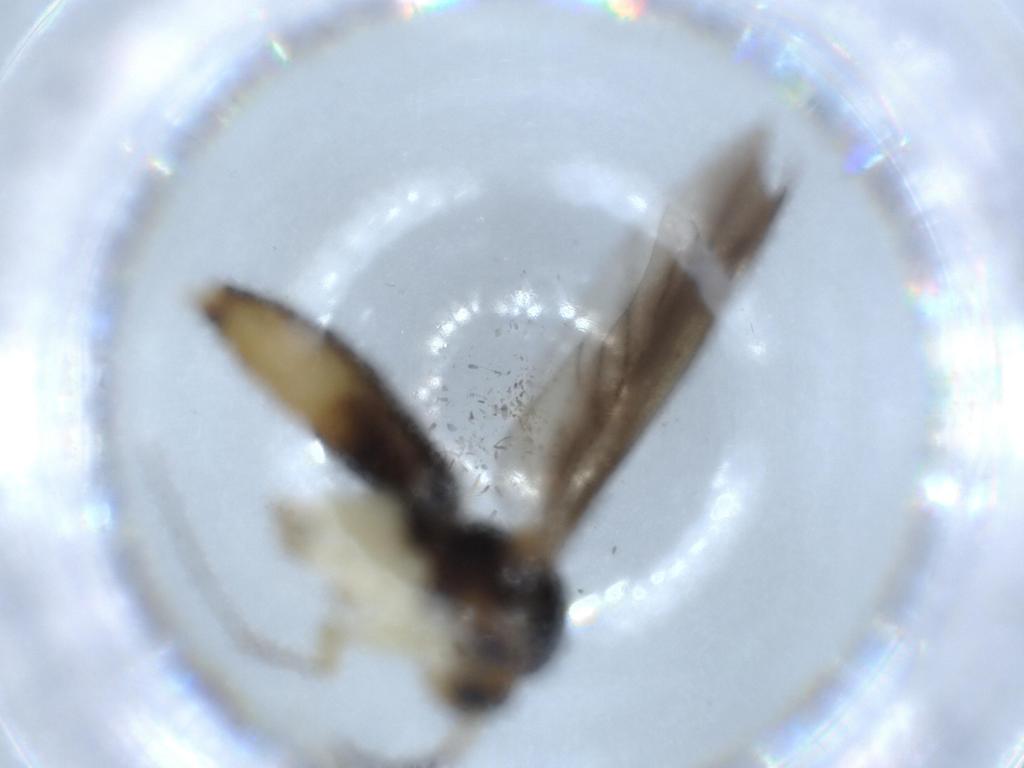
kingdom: Animalia
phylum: Arthropoda
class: Insecta
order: Diptera
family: Mycetophilidae
